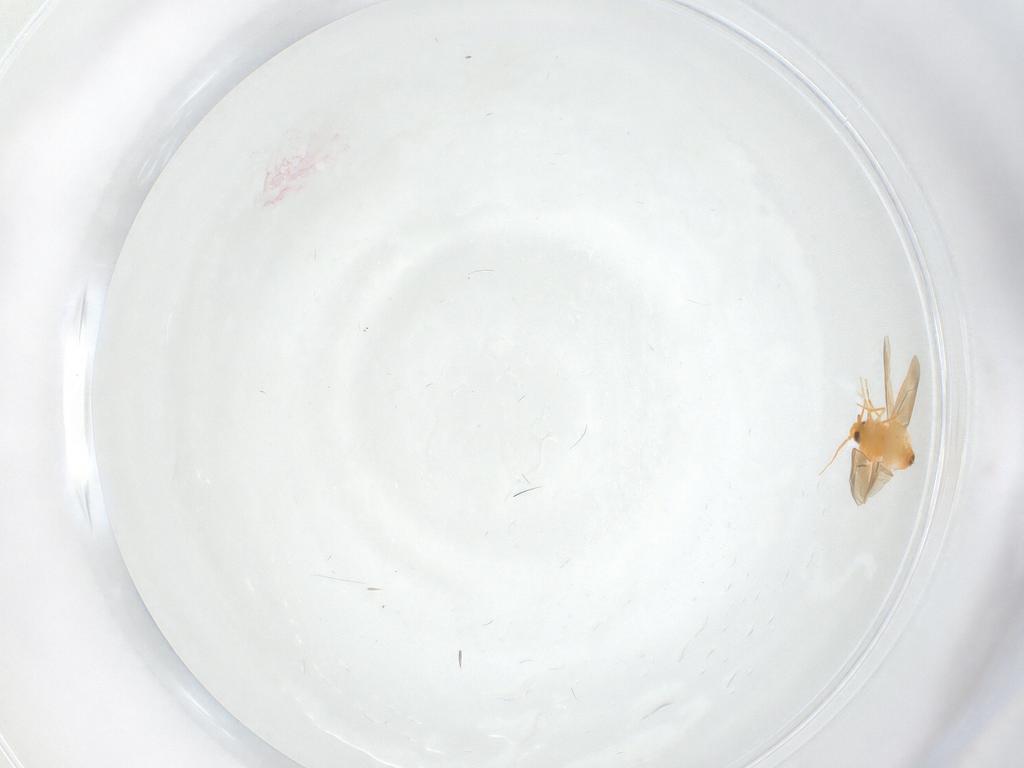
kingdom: Animalia
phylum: Arthropoda
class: Insecta
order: Hemiptera
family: Aleyrodidae
